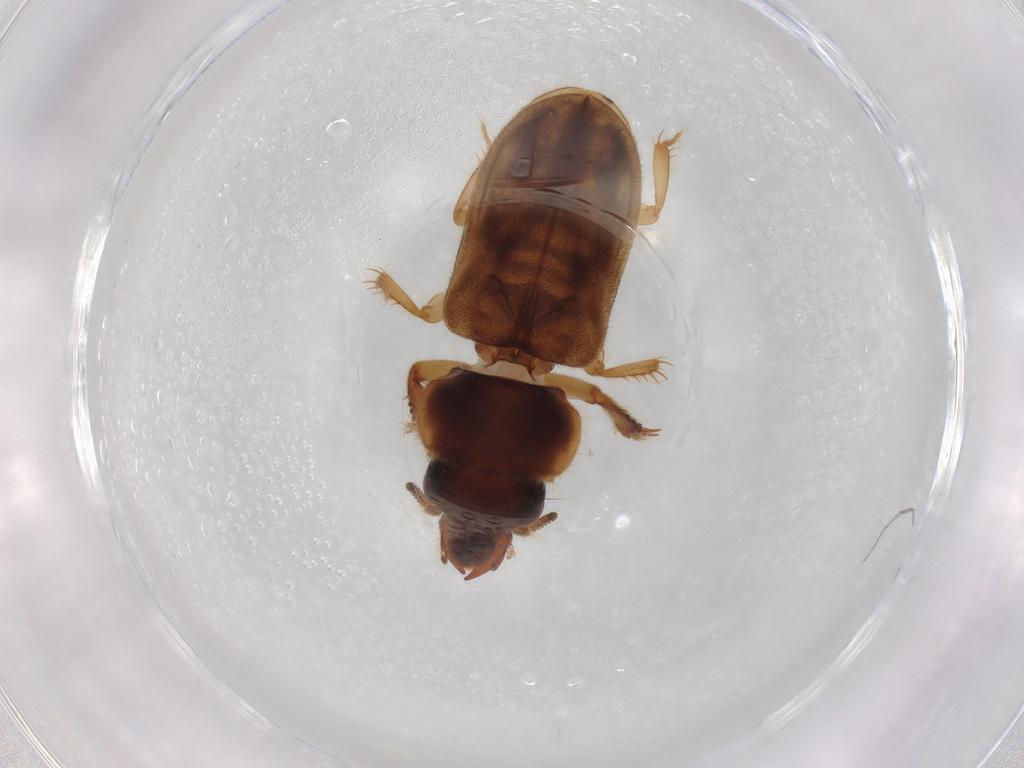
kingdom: Animalia
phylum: Arthropoda
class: Insecta
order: Coleoptera
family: Heteroceridae
